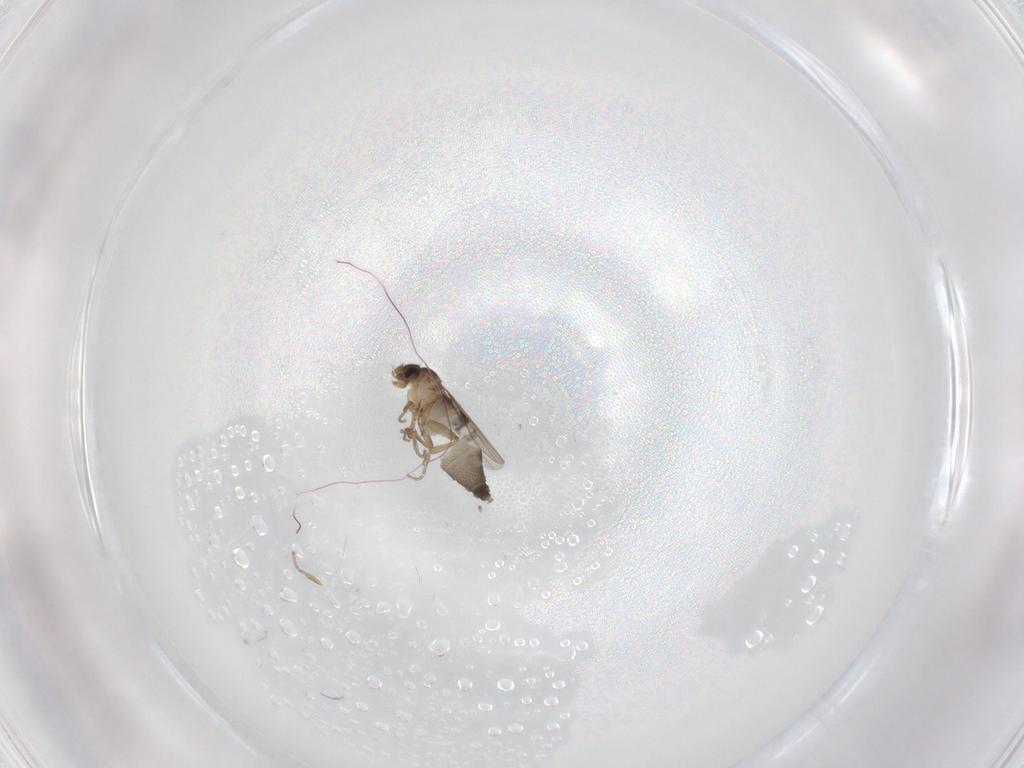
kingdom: Animalia
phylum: Arthropoda
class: Insecta
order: Diptera
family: Phoridae
